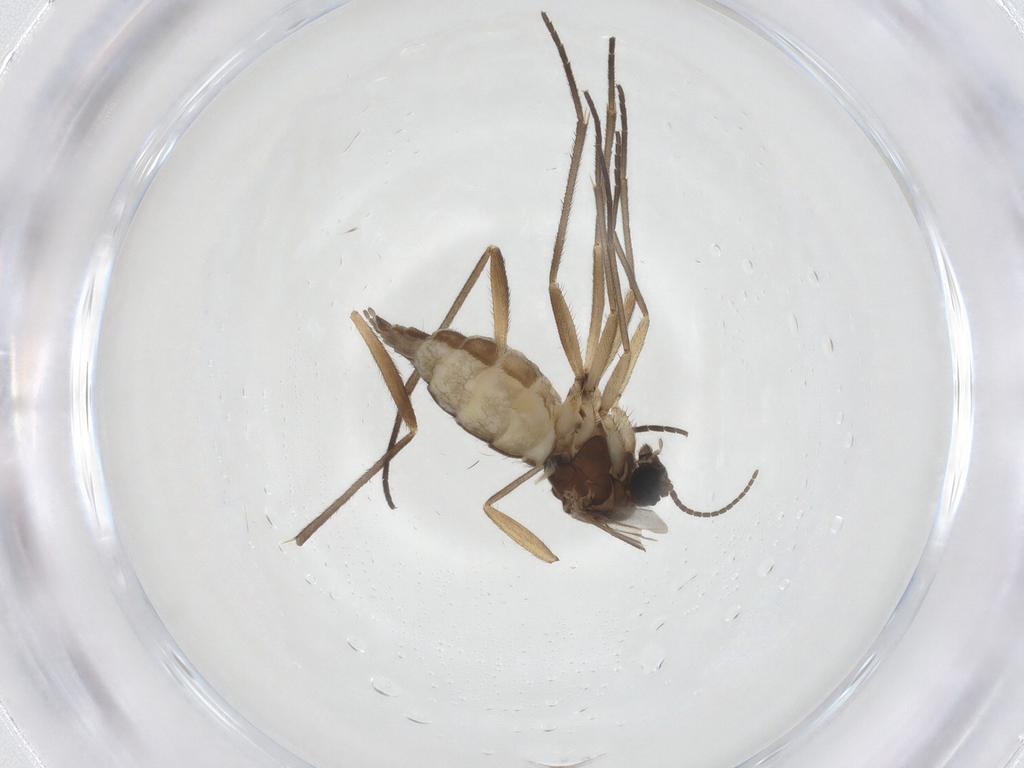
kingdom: Animalia
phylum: Arthropoda
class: Insecta
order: Diptera
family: Sciaridae
